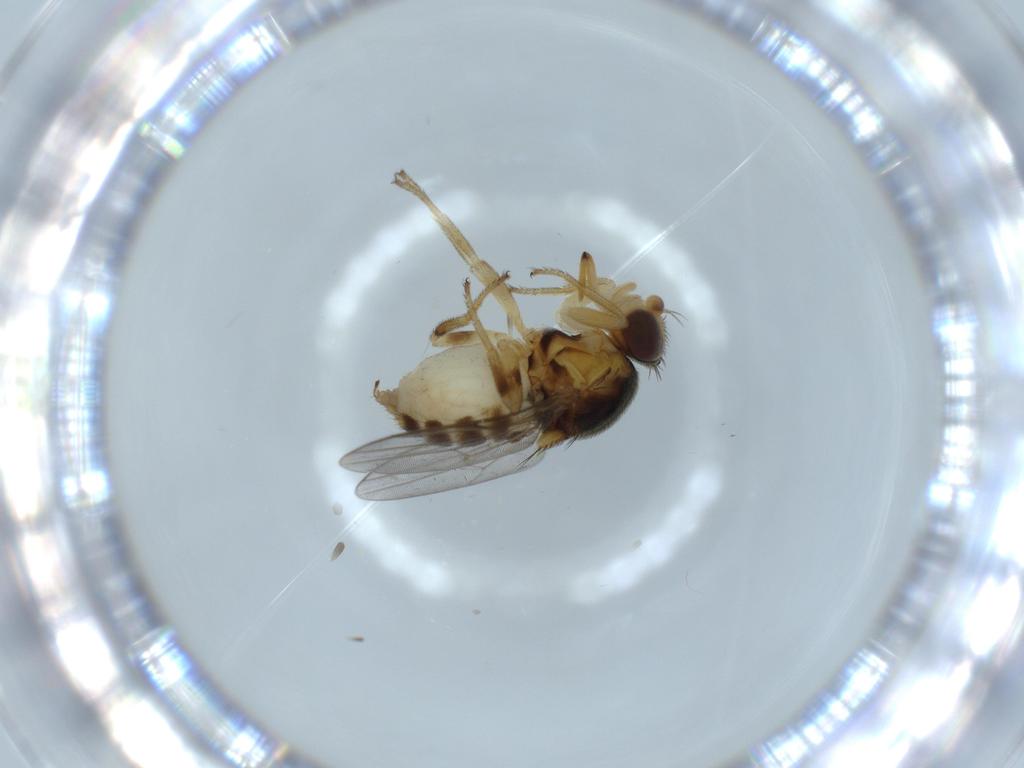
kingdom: Animalia
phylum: Arthropoda
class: Insecta
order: Diptera
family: Chloropidae
